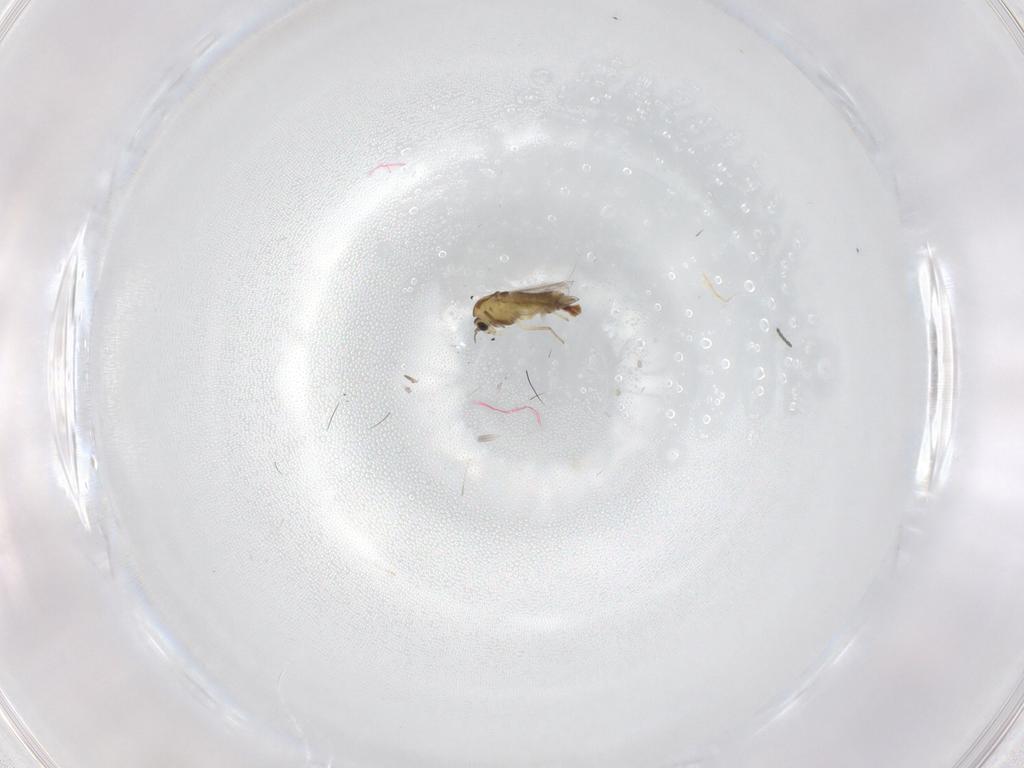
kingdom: Animalia
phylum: Arthropoda
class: Insecta
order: Diptera
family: Chironomidae
